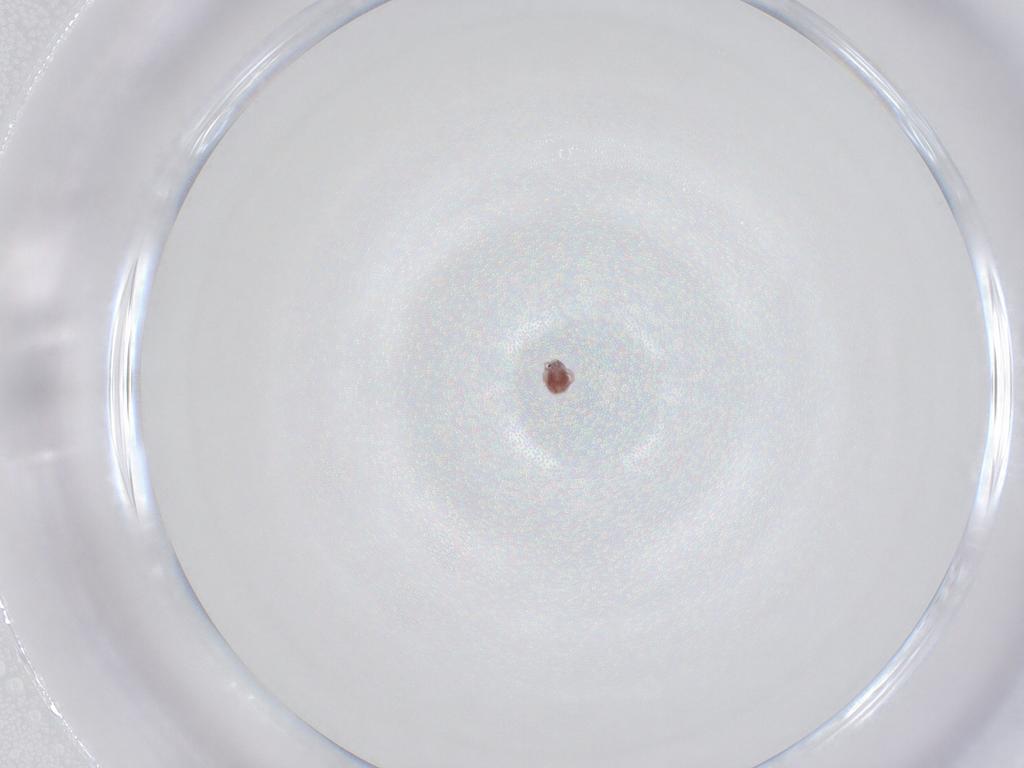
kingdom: Animalia
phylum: Arthropoda
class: Arachnida
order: Trombidiformes
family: Pionidae
